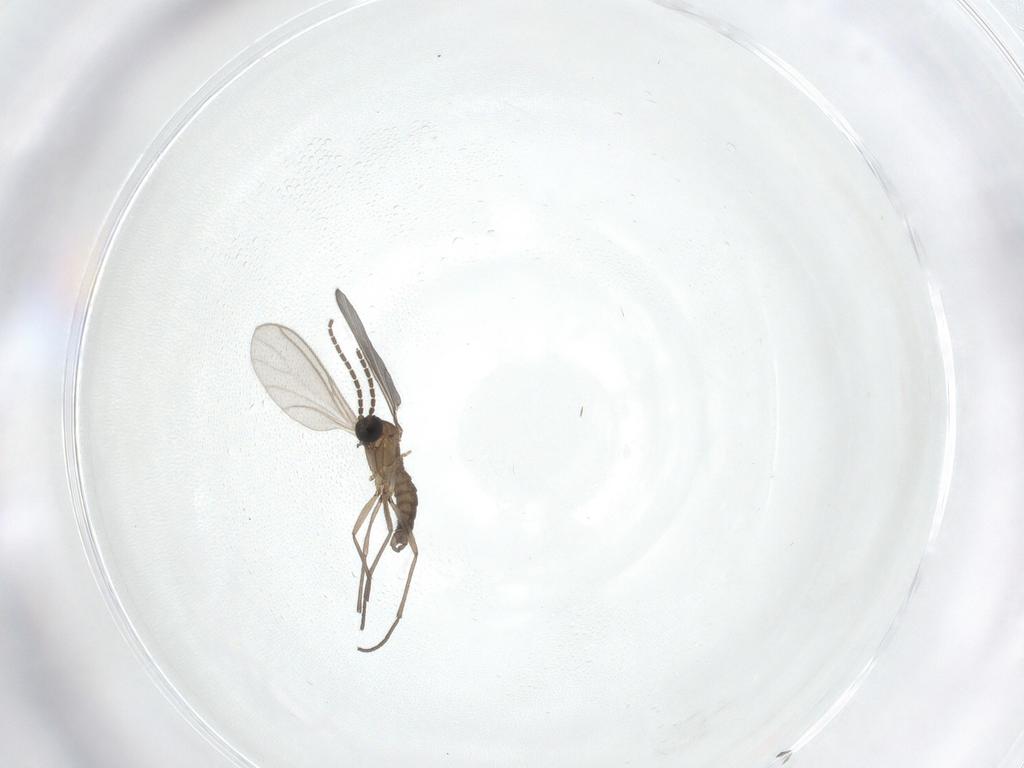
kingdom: Animalia
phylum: Arthropoda
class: Insecta
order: Diptera
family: Sciaridae
